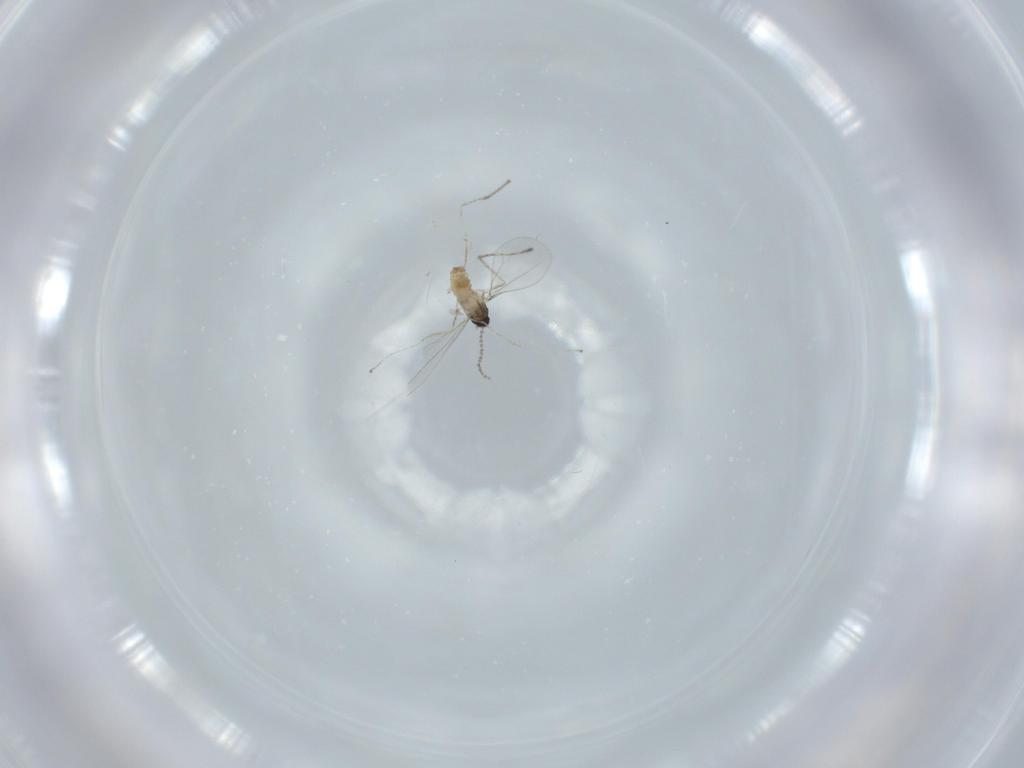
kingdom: Animalia
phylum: Arthropoda
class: Insecta
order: Diptera
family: Cecidomyiidae
